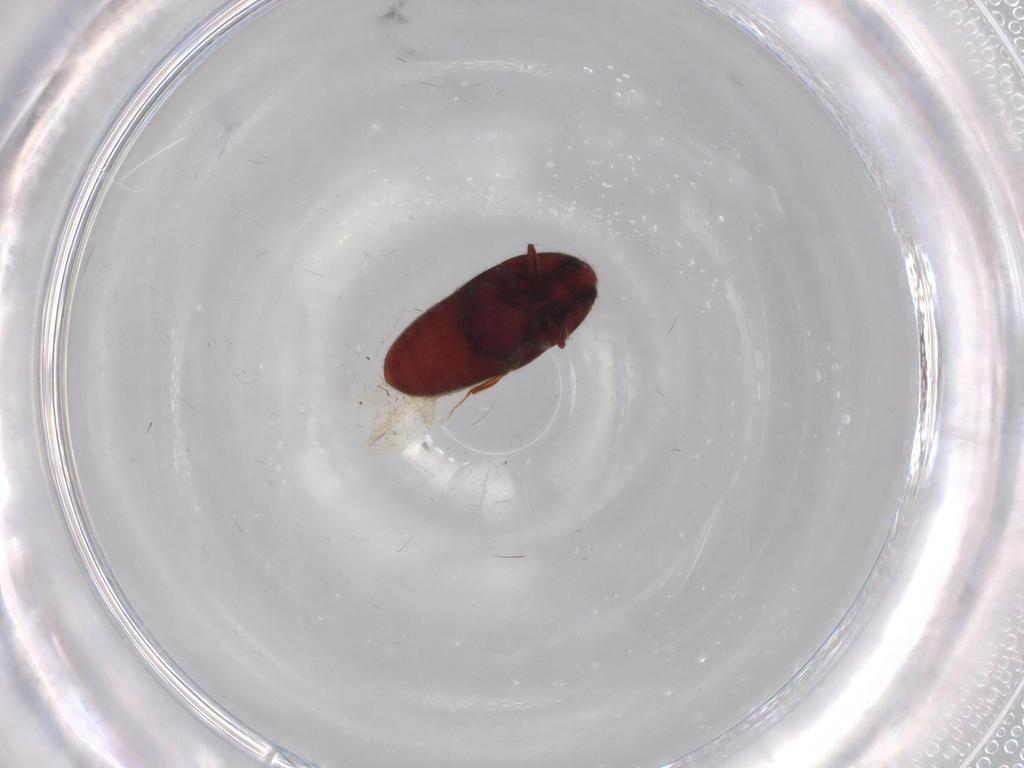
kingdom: Animalia
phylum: Arthropoda
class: Insecta
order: Coleoptera
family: Throscidae
